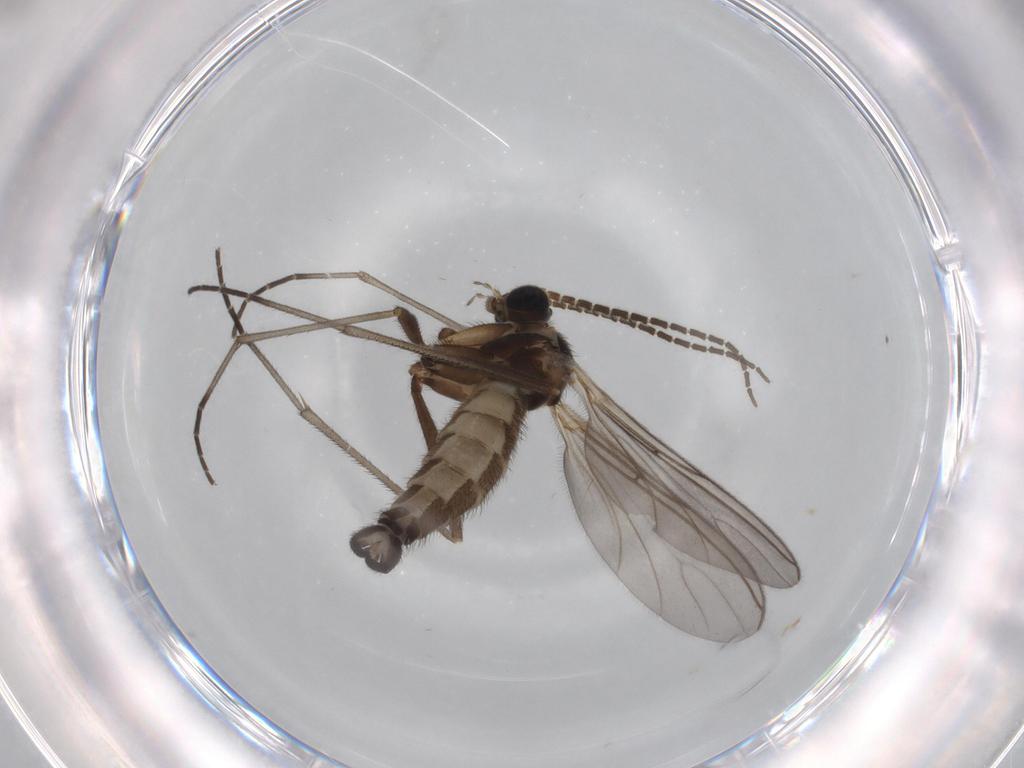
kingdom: Animalia
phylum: Arthropoda
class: Insecta
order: Diptera
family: Sciaridae
